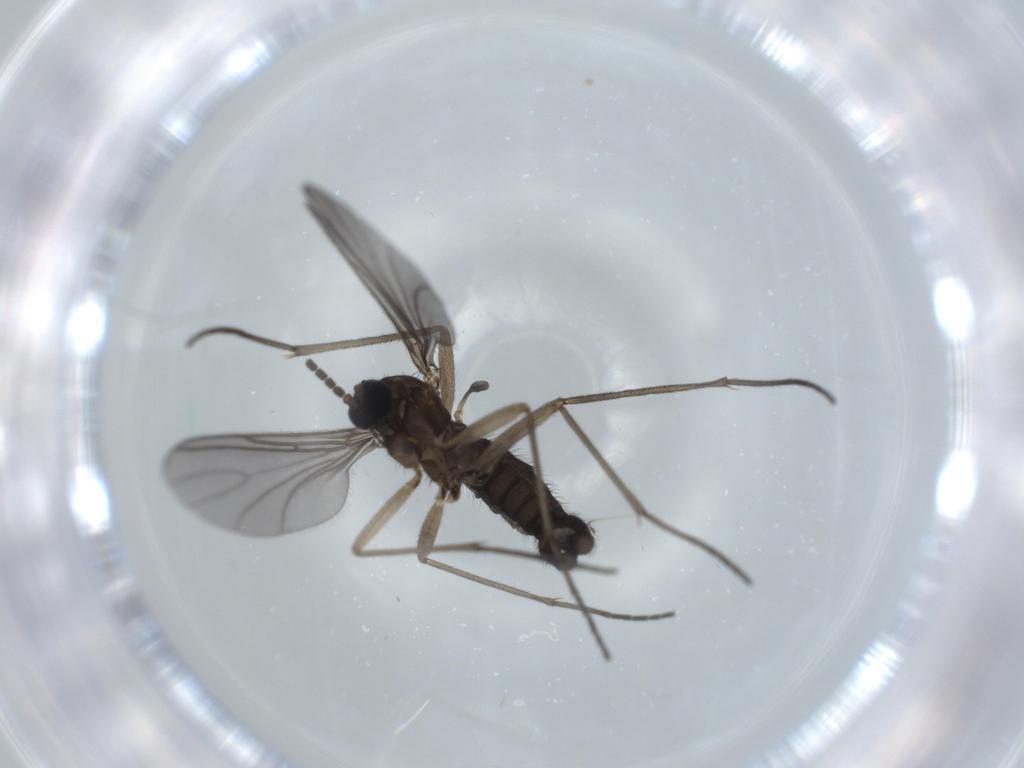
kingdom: Animalia
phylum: Arthropoda
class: Insecta
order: Diptera
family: Sciaridae
